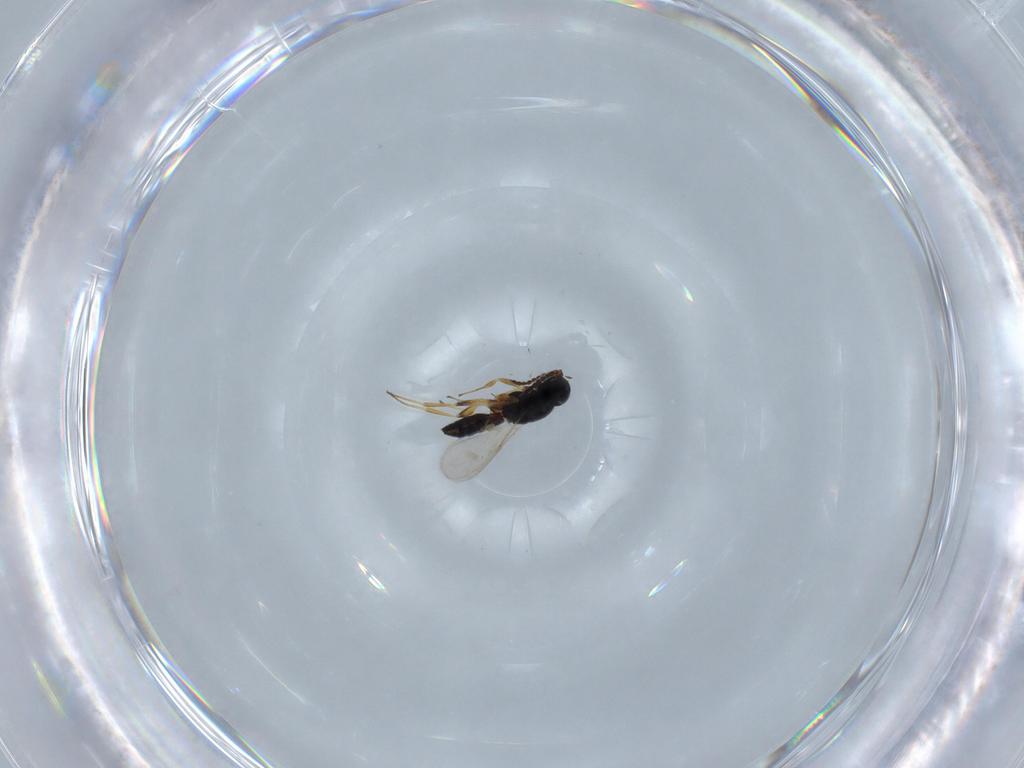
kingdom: Animalia
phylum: Arthropoda
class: Insecta
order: Hymenoptera
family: Scelionidae
